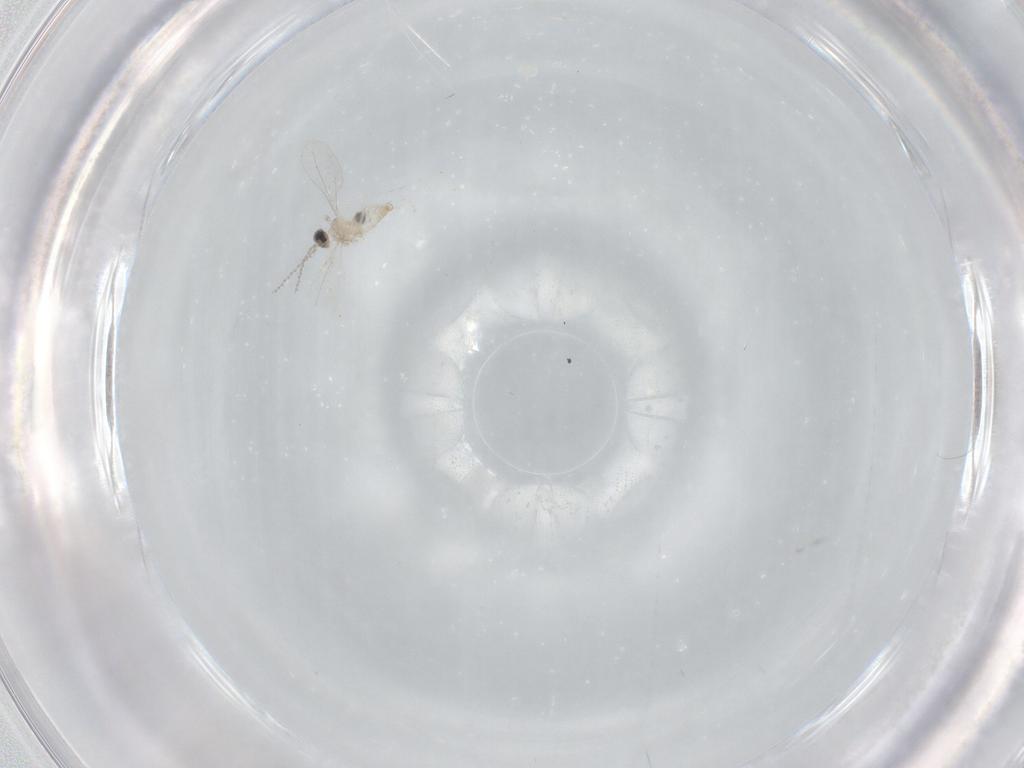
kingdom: Animalia
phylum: Arthropoda
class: Insecta
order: Diptera
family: Cecidomyiidae
